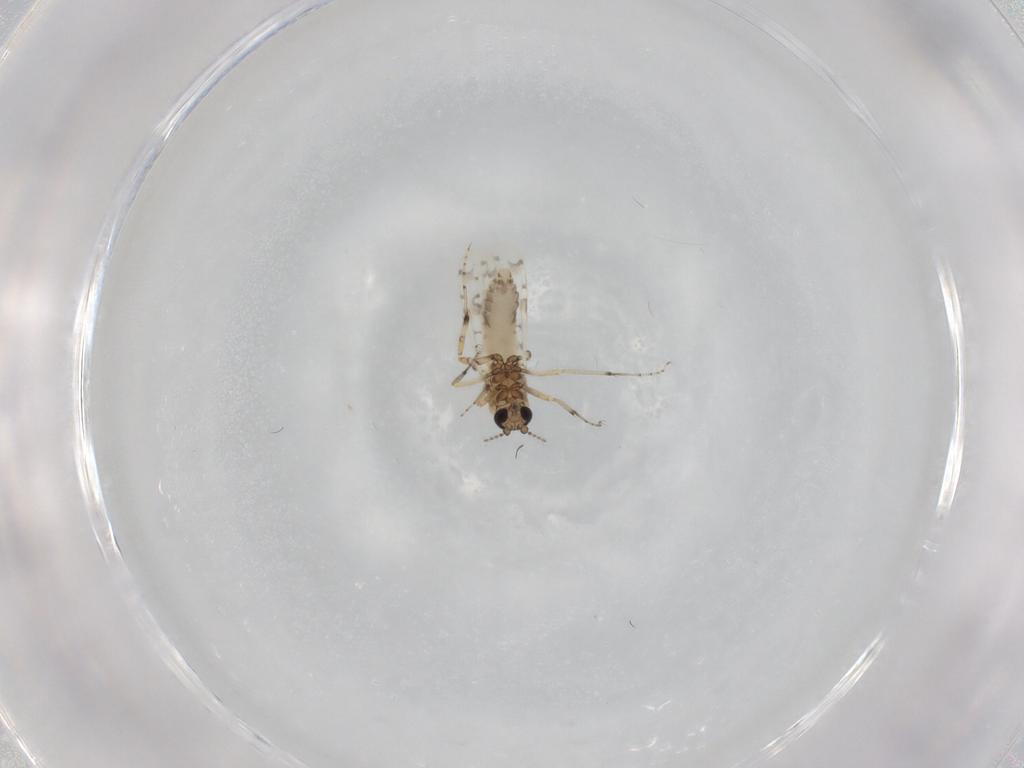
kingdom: Animalia
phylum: Arthropoda
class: Insecta
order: Diptera
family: Ceratopogonidae
